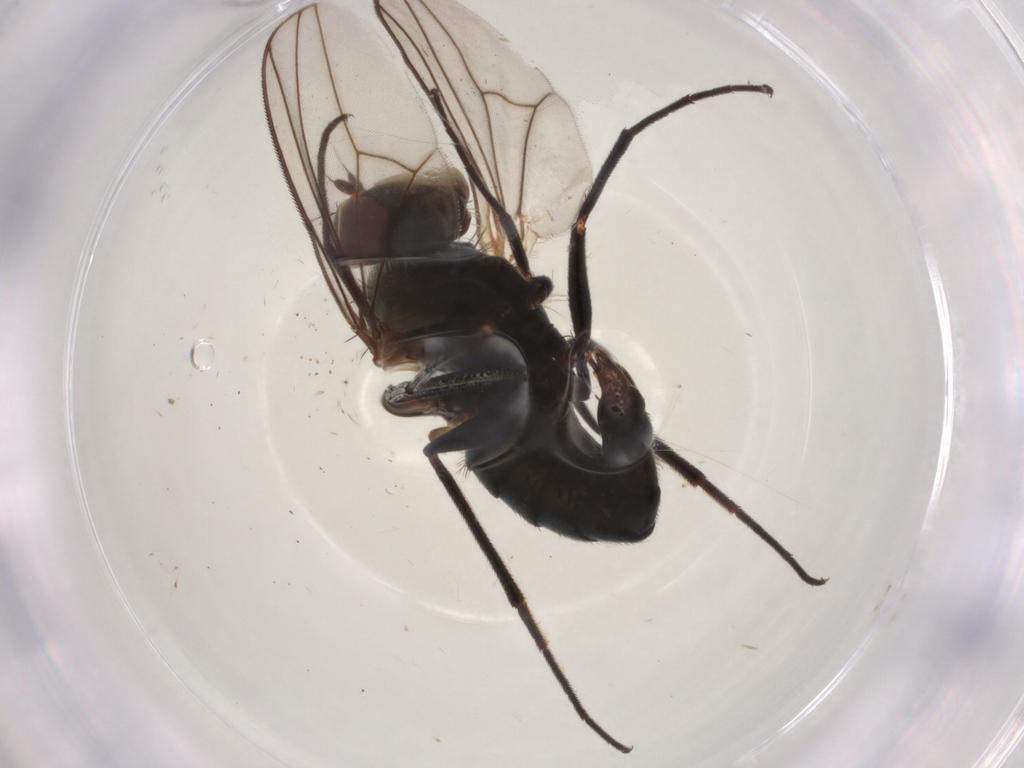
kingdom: Animalia
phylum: Arthropoda
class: Insecta
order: Diptera
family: Dolichopodidae
